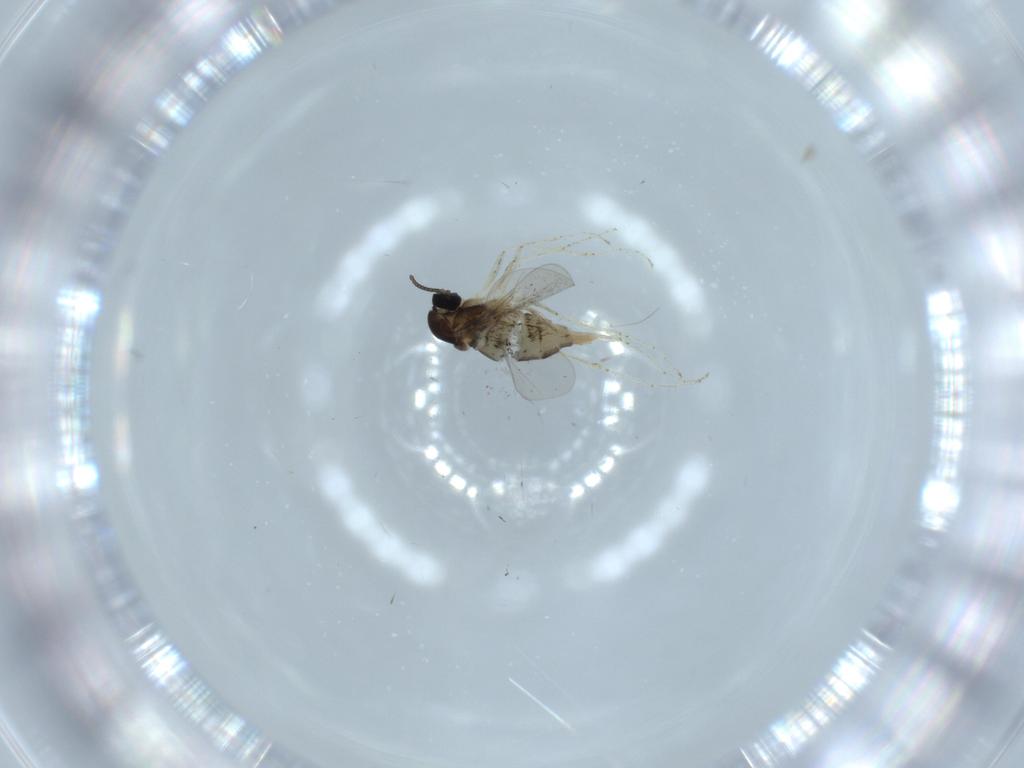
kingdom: Animalia
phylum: Arthropoda
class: Insecta
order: Diptera
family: Cecidomyiidae
